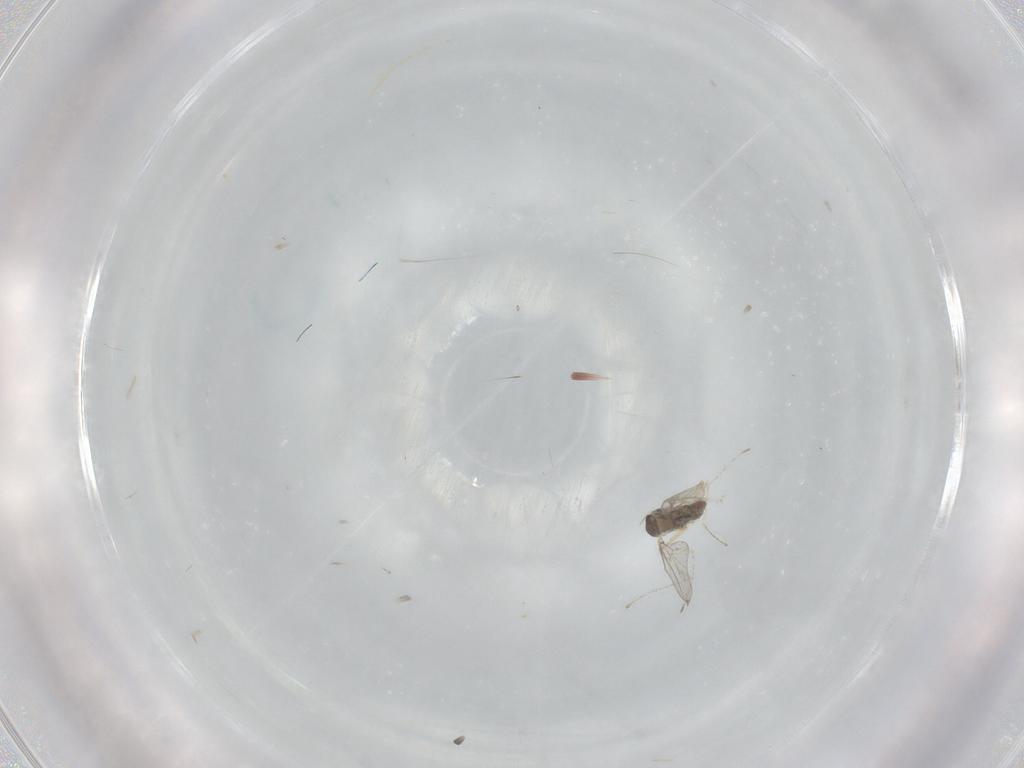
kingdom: Animalia
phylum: Arthropoda
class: Insecta
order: Diptera
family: Cecidomyiidae
